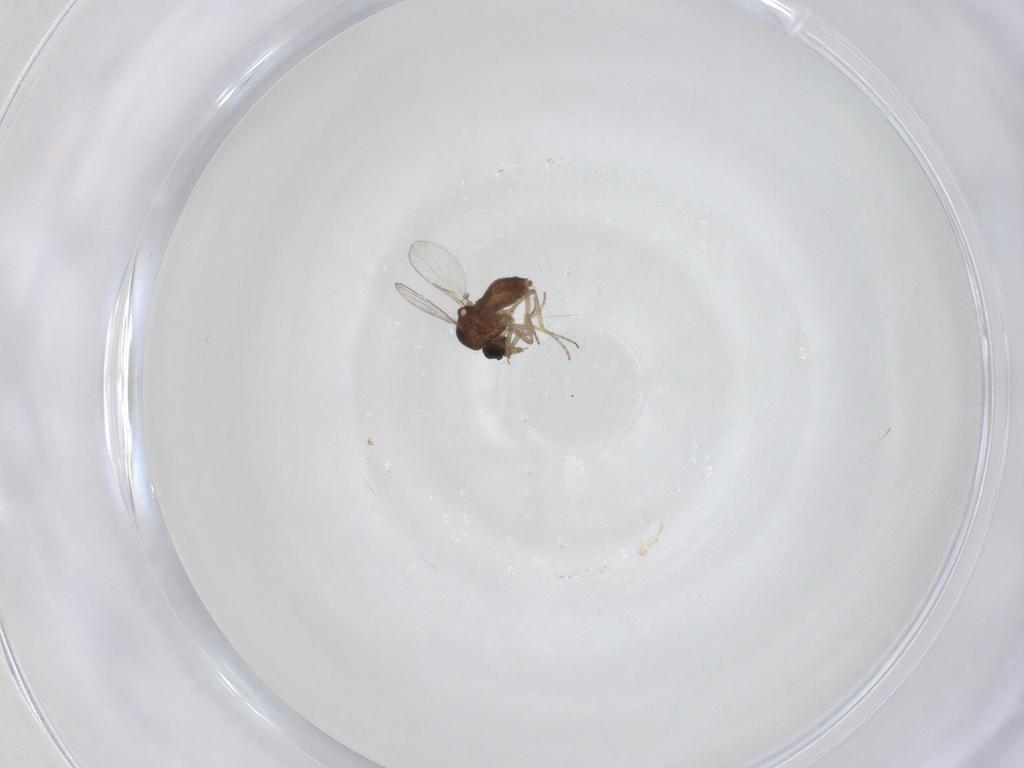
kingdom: Animalia
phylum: Arthropoda
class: Insecta
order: Diptera
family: Ceratopogonidae
